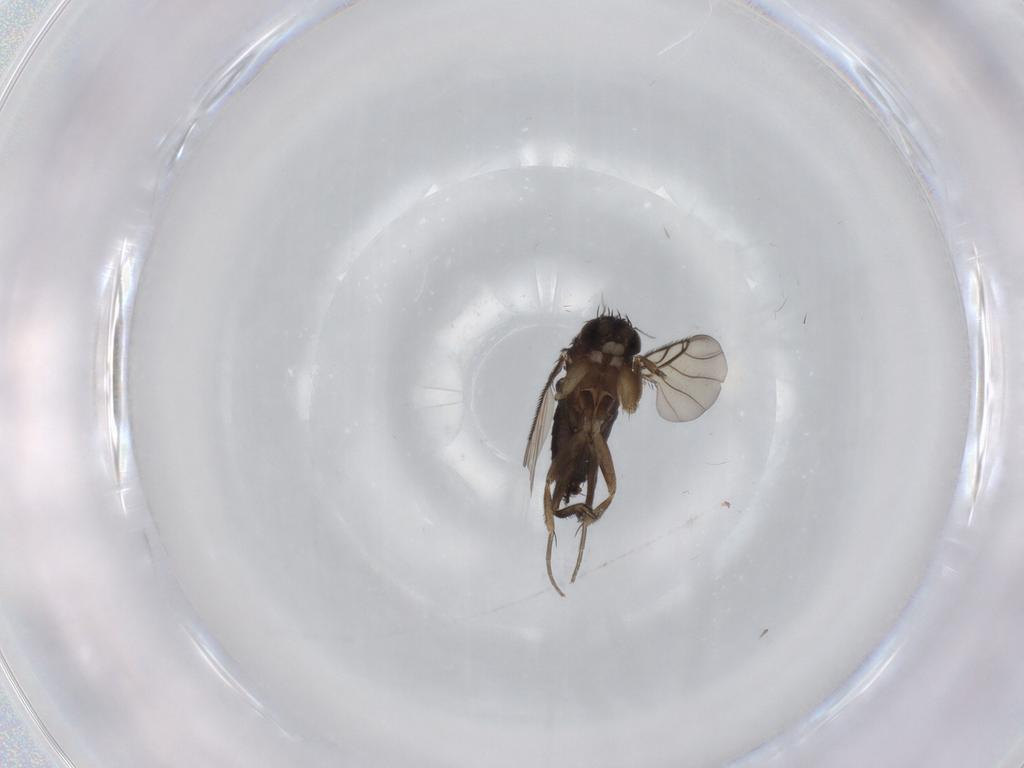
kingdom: Animalia
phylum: Arthropoda
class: Insecta
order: Diptera
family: Phoridae
